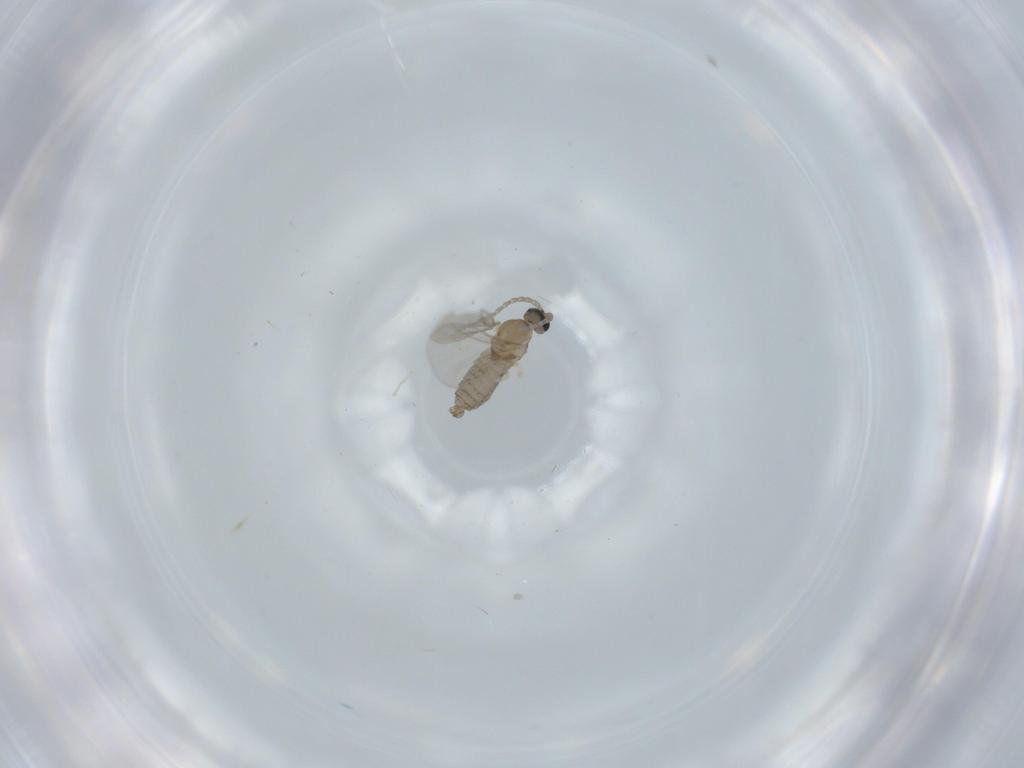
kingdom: Animalia
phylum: Arthropoda
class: Insecta
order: Diptera
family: Cecidomyiidae
